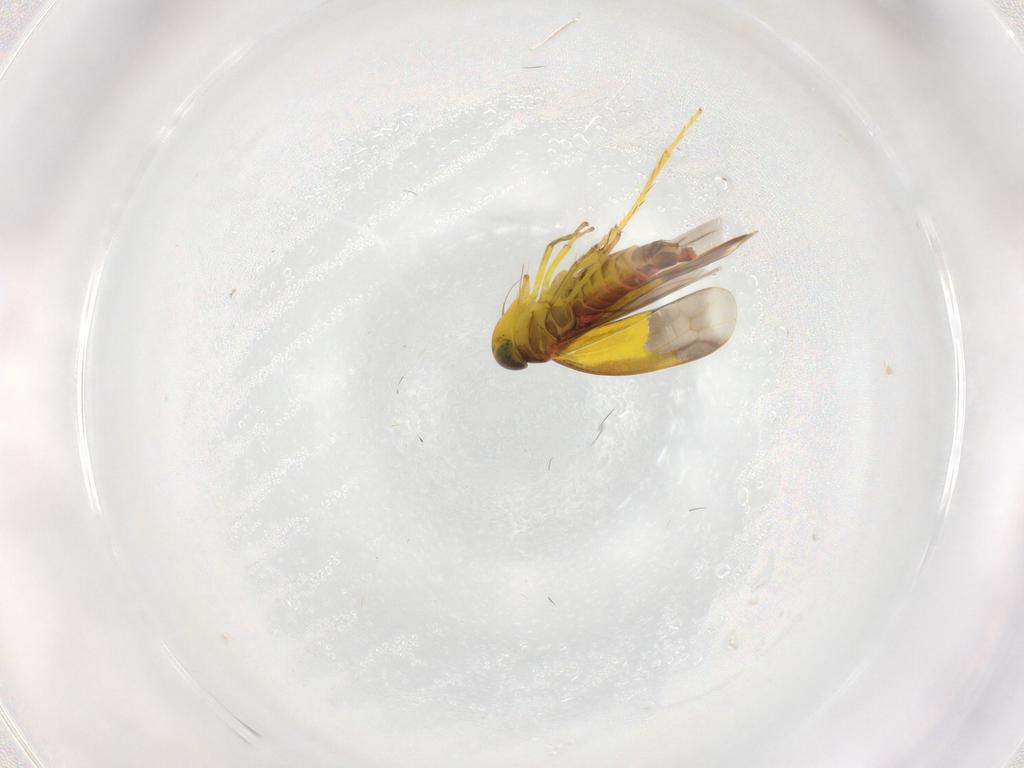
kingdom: Animalia
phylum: Arthropoda
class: Insecta
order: Hemiptera
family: Cicadellidae
